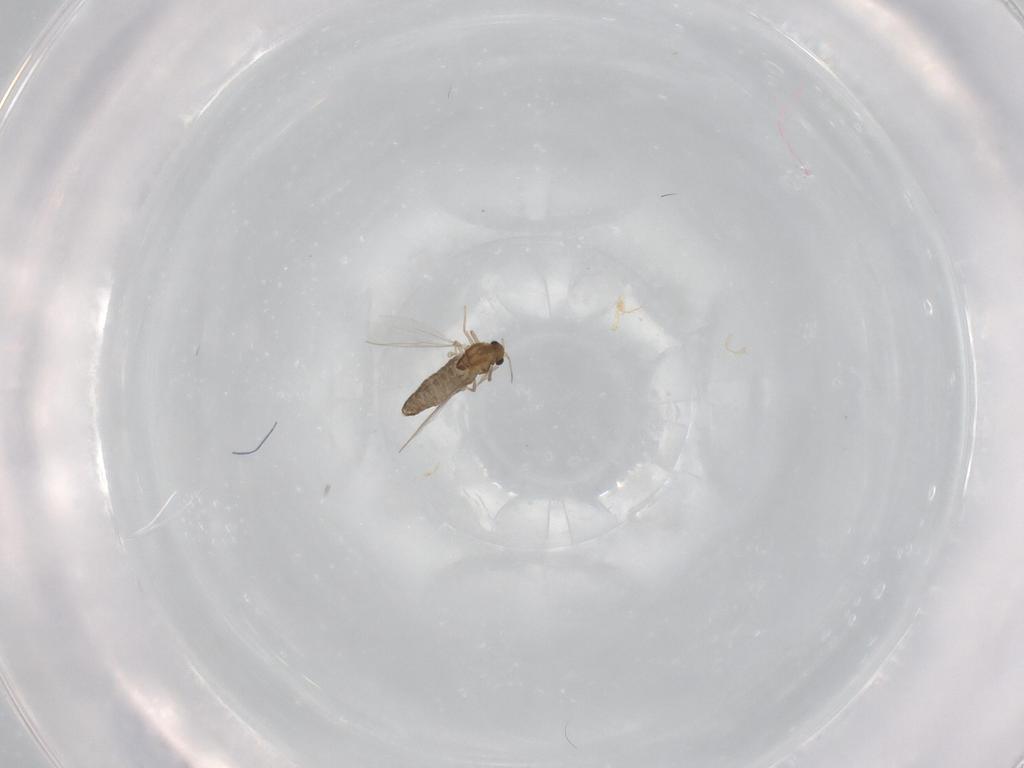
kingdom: Animalia
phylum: Arthropoda
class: Insecta
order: Diptera
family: Chironomidae
